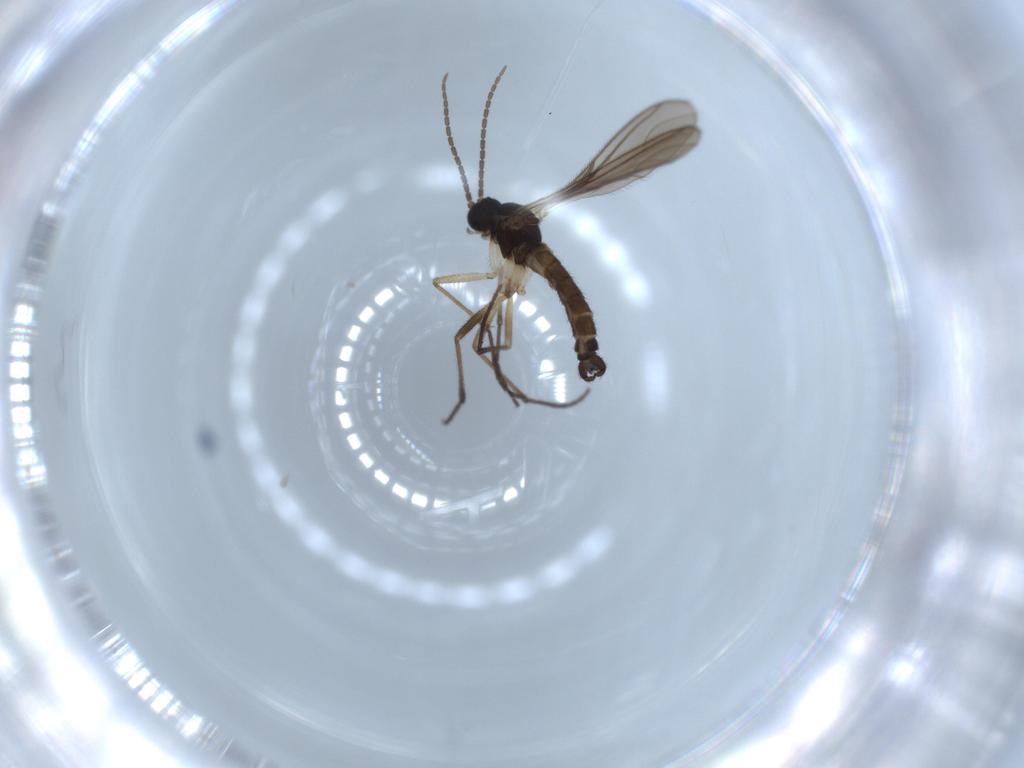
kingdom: Animalia
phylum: Arthropoda
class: Insecta
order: Diptera
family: Sciaridae
